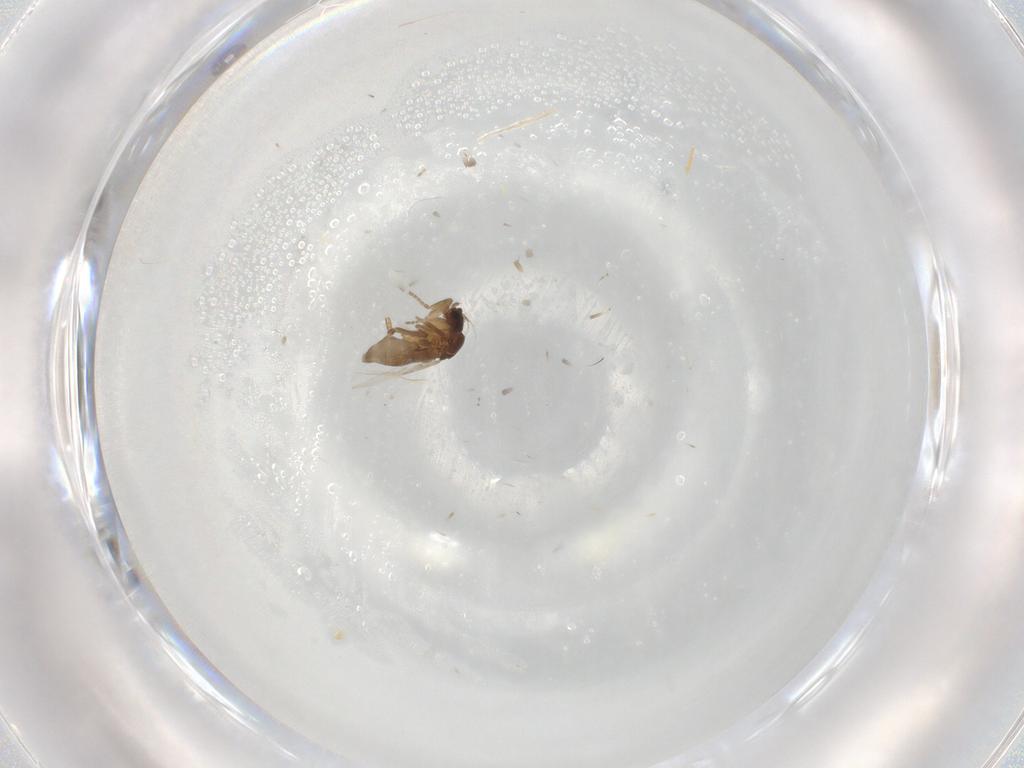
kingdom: Animalia
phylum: Arthropoda
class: Insecta
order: Diptera
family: Phoridae
